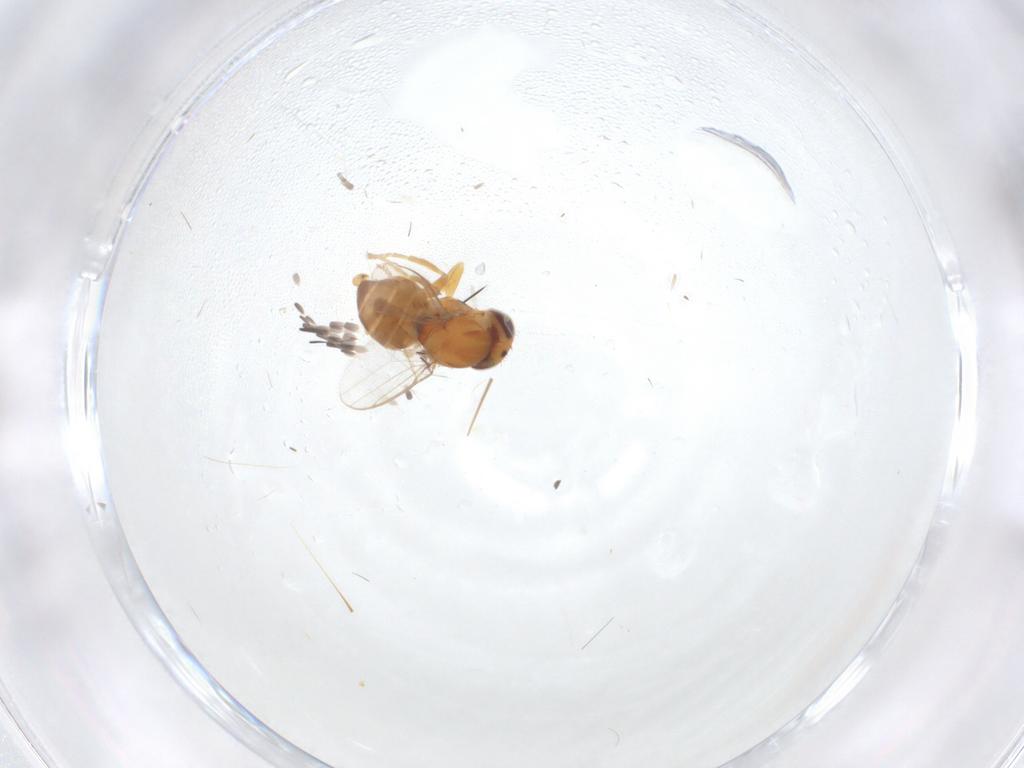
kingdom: Animalia
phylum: Arthropoda
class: Insecta
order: Diptera
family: Chloropidae
